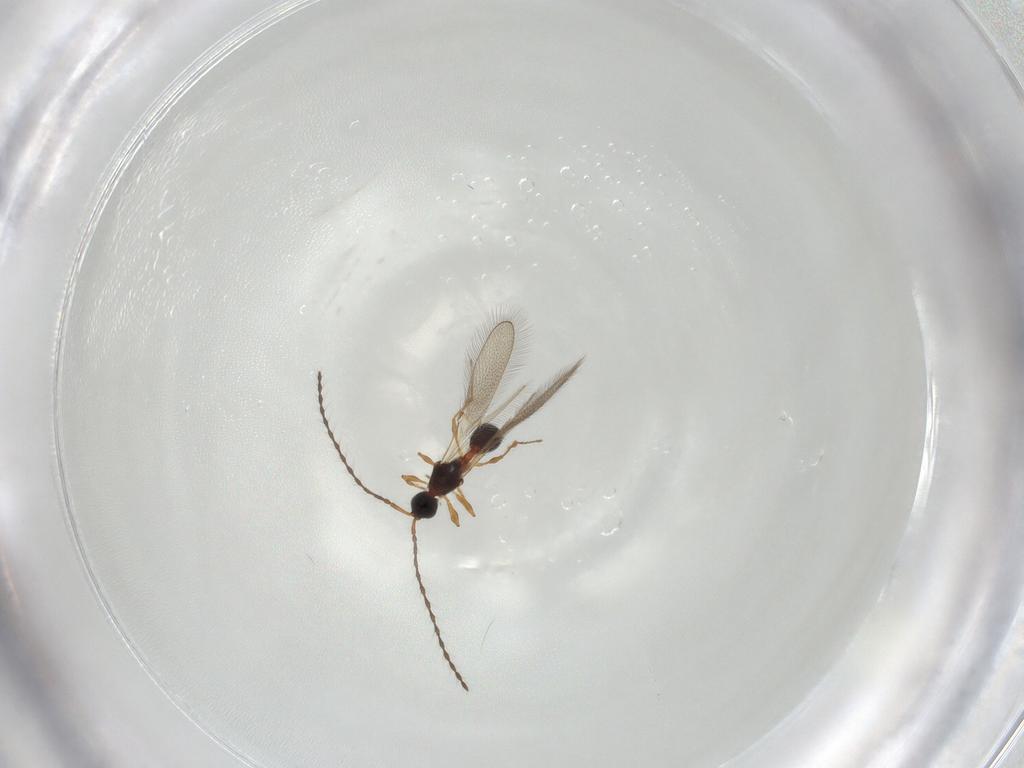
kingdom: Animalia
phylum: Arthropoda
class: Insecta
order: Hymenoptera
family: Diapriidae
